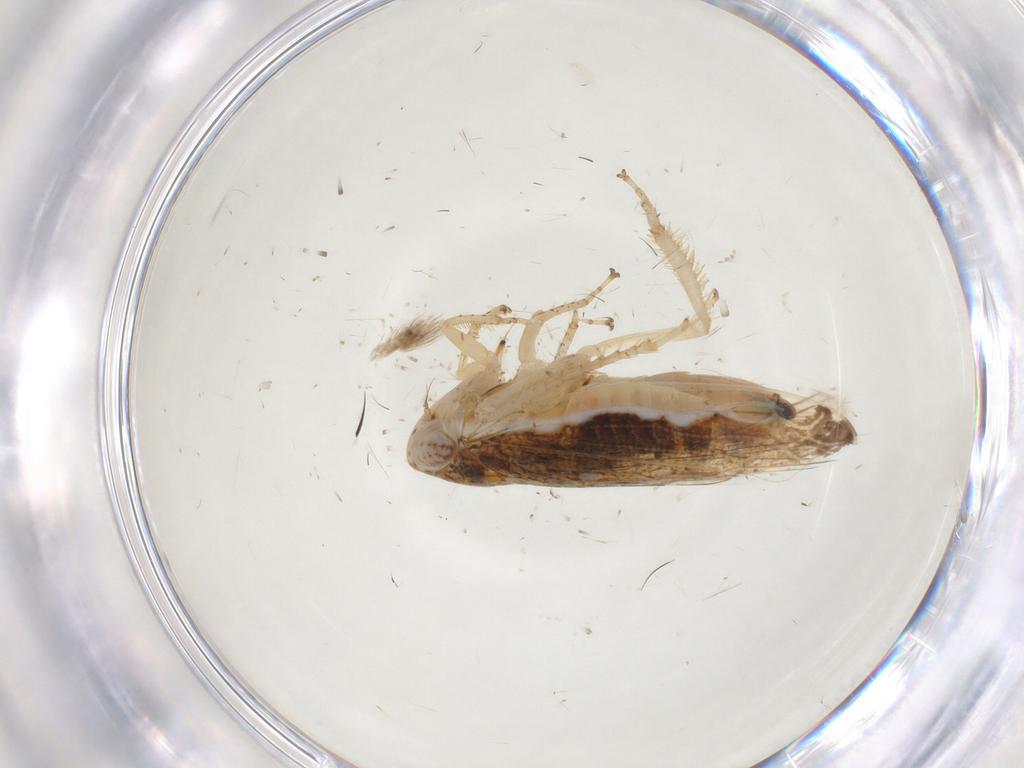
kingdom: Animalia
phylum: Arthropoda
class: Insecta
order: Hemiptera
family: Cicadellidae
